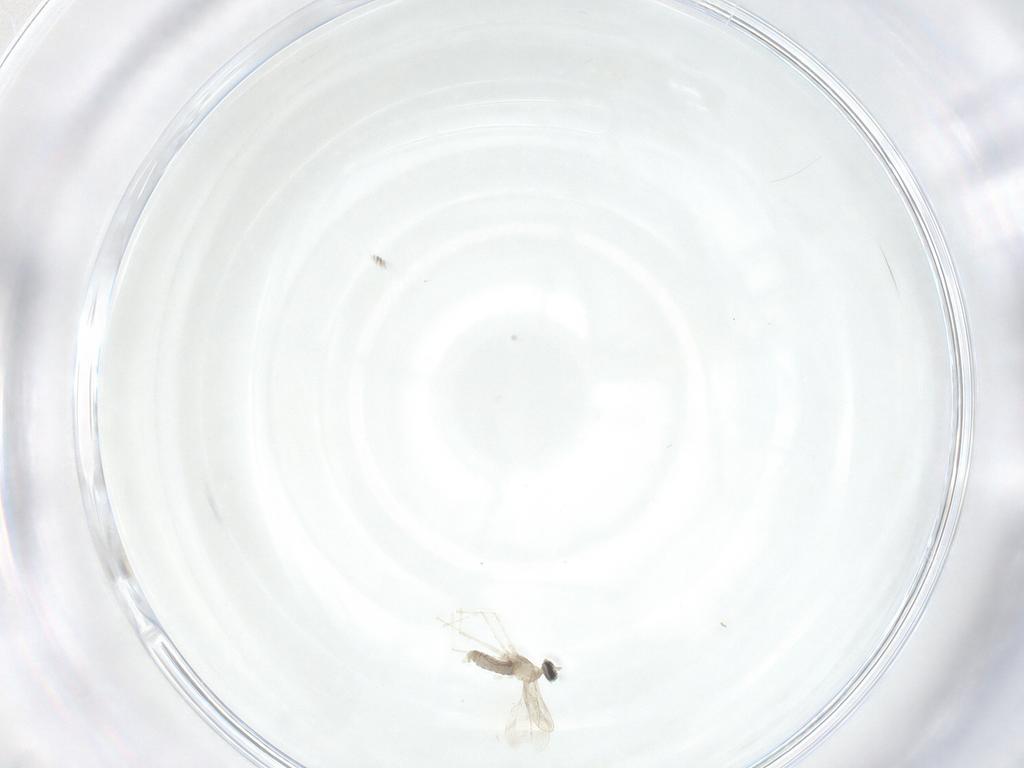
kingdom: Animalia
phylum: Arthropoda
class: Insecta
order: Diptera
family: Cecidomyiidae
